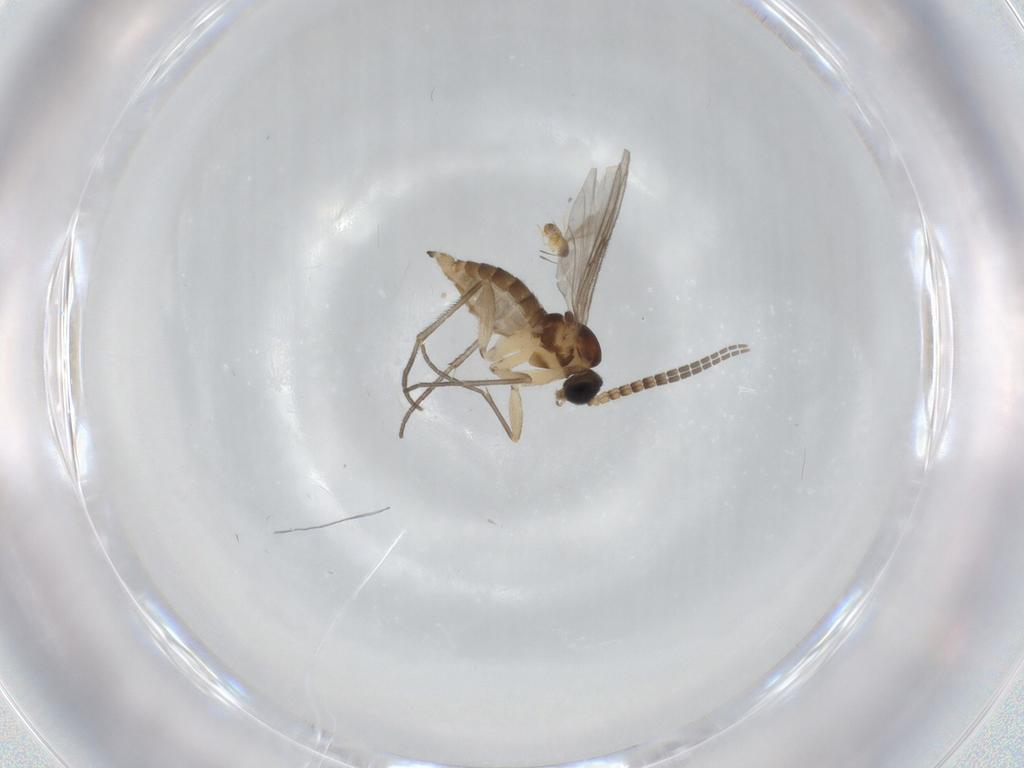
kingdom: Animalia
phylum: Arthropoda
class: Insecta
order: Diptera
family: Sciaridae
